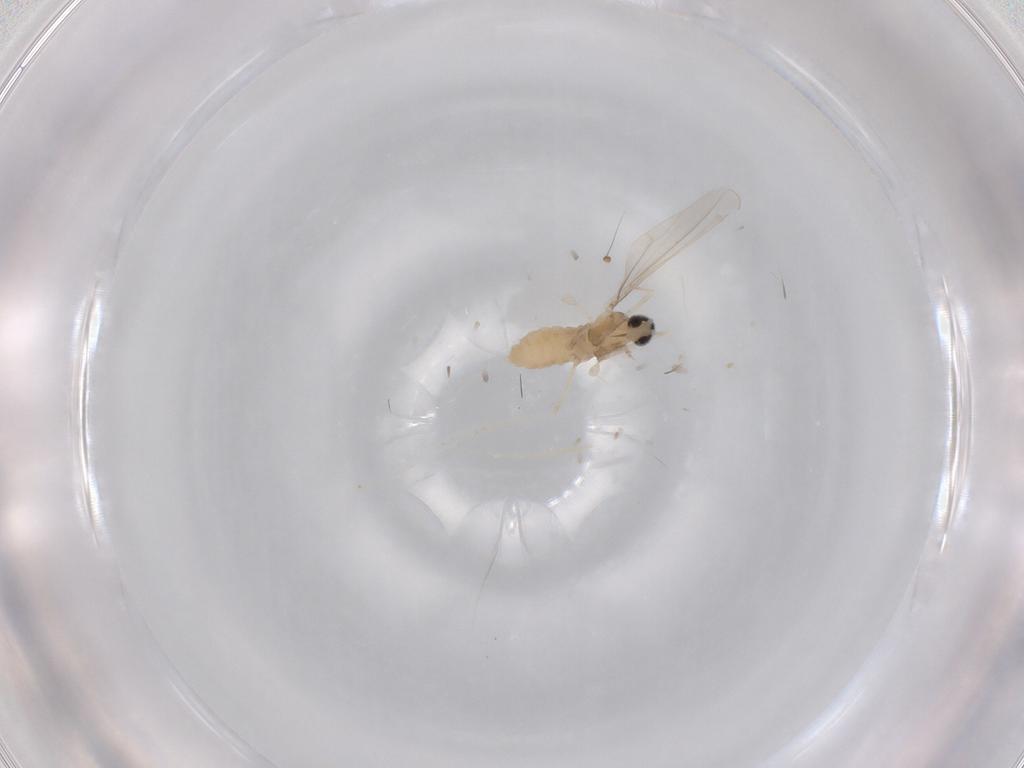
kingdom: Animalia
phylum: Arthropoda
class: Insecta
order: Diptera
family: Cecidomyiidae
